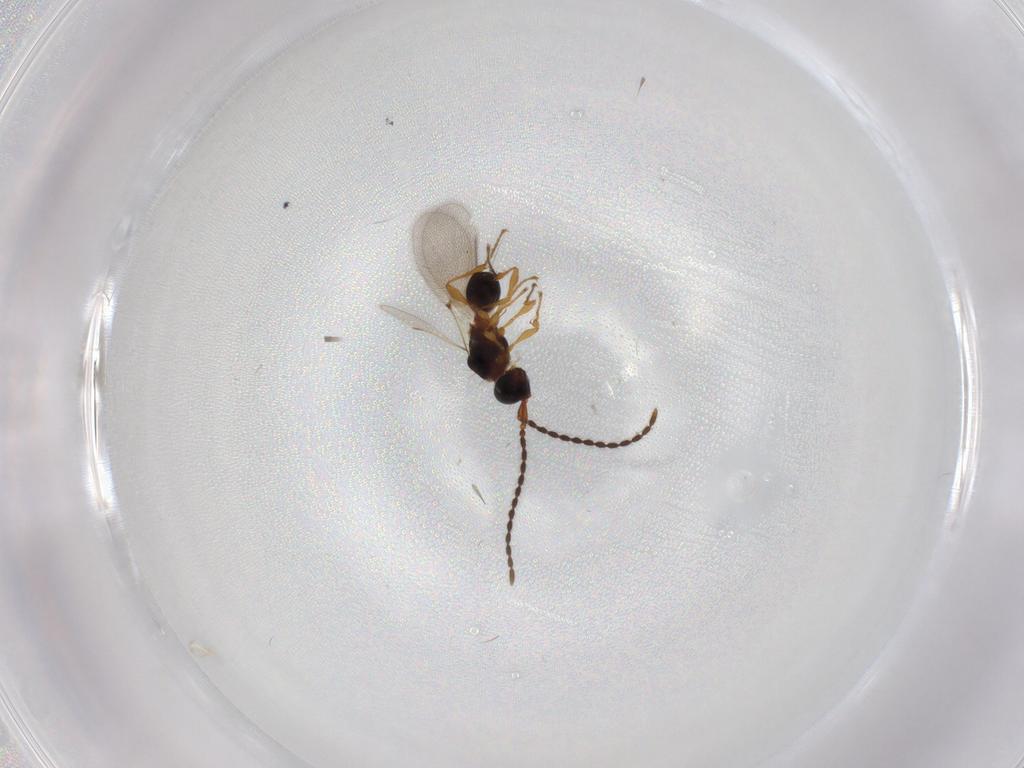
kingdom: Animalia
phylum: Arthropoda
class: Insecta
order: Hymenoptera
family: Diapriidae
